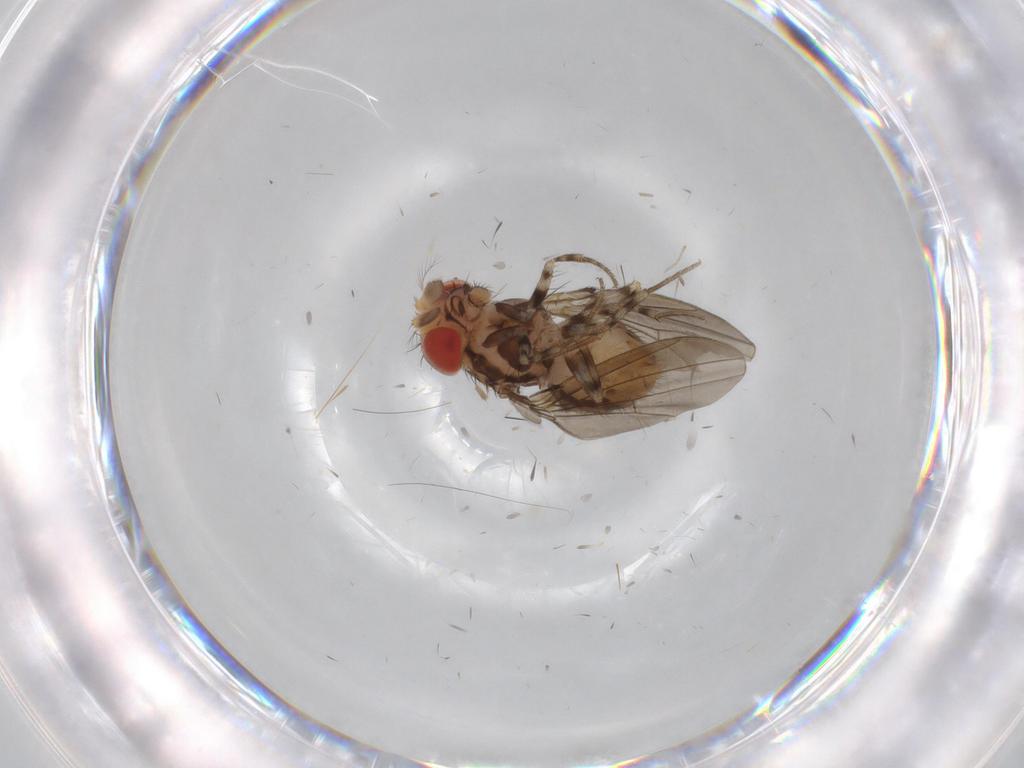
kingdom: Animalia
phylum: Arthropoda
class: Insecta
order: Diptera
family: Drosophilidae
